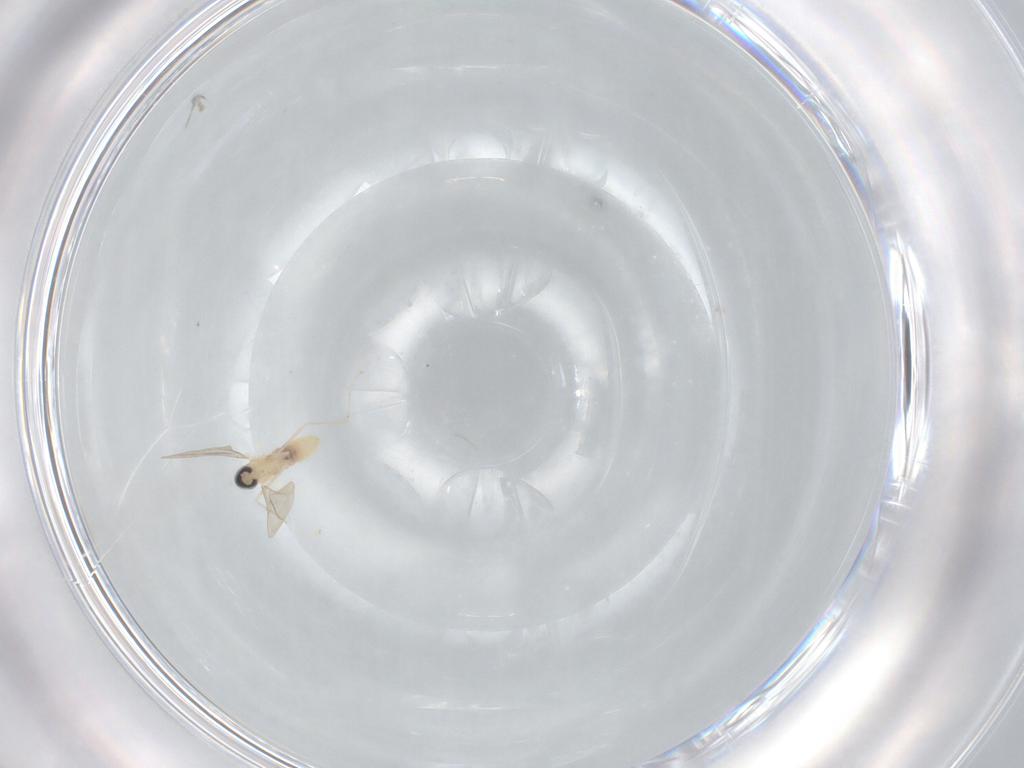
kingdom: Animalia
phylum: Arthropoda
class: Insecta
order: Diptera
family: Cecidomyiidae
